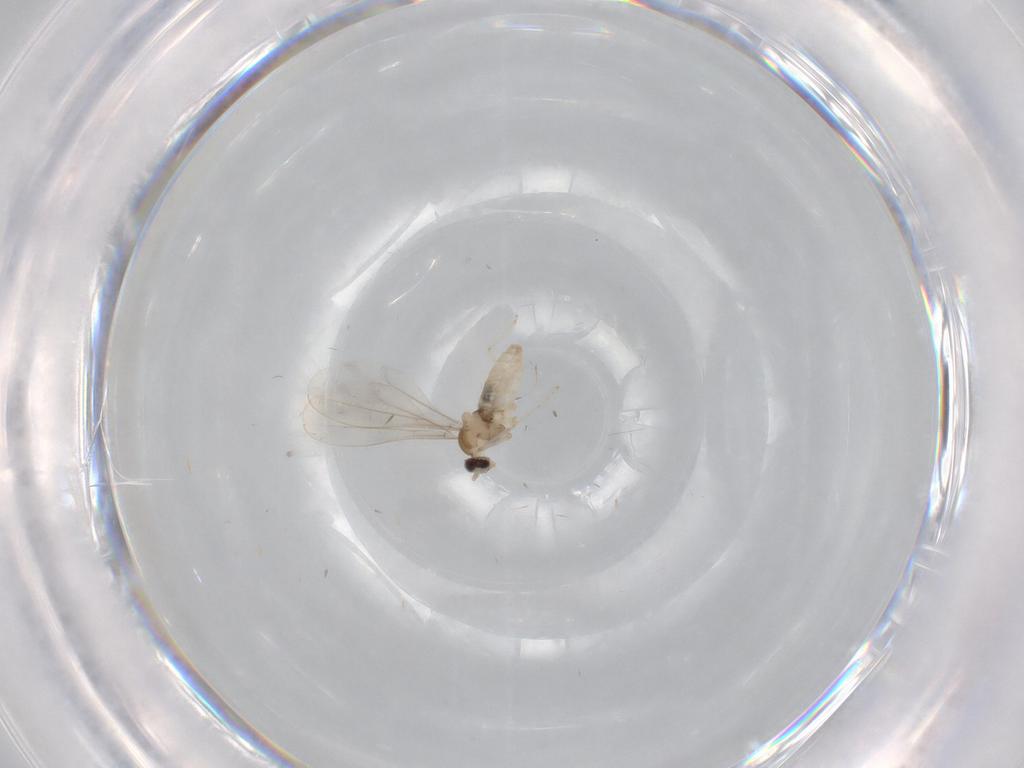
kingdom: Animalia
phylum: Arthropoda
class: Insecta
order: Diptera
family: Cecidomyiidae
